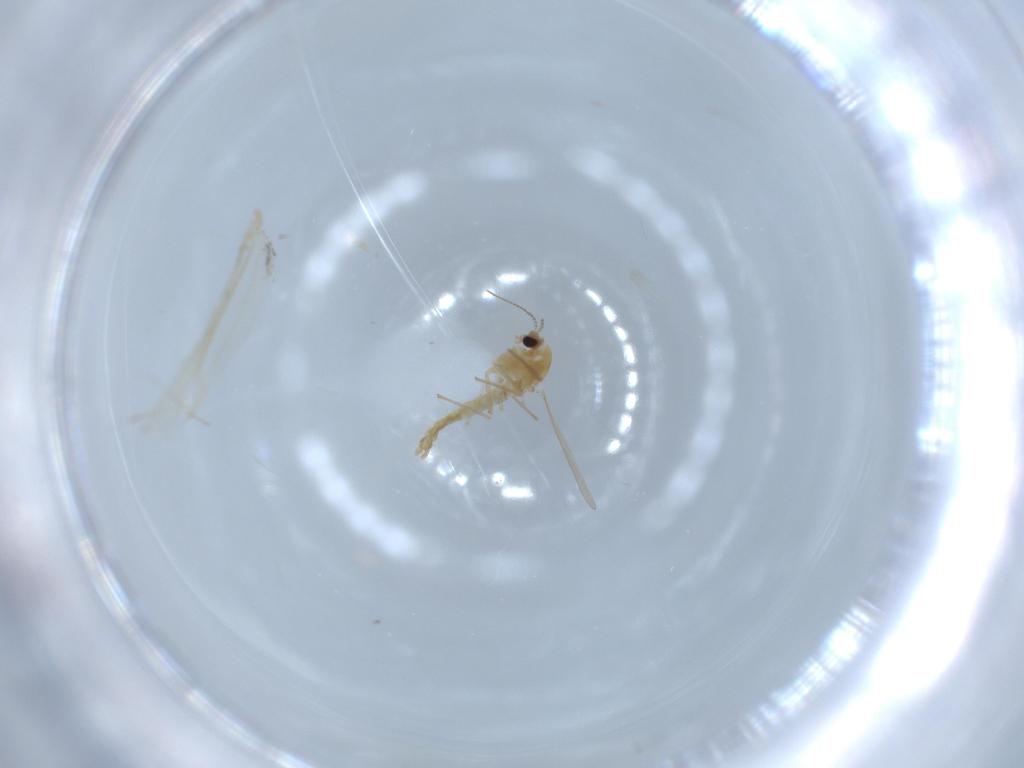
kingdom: Animalia
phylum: Arthropoda
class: Insecta
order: Diptera
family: Chironomidae
